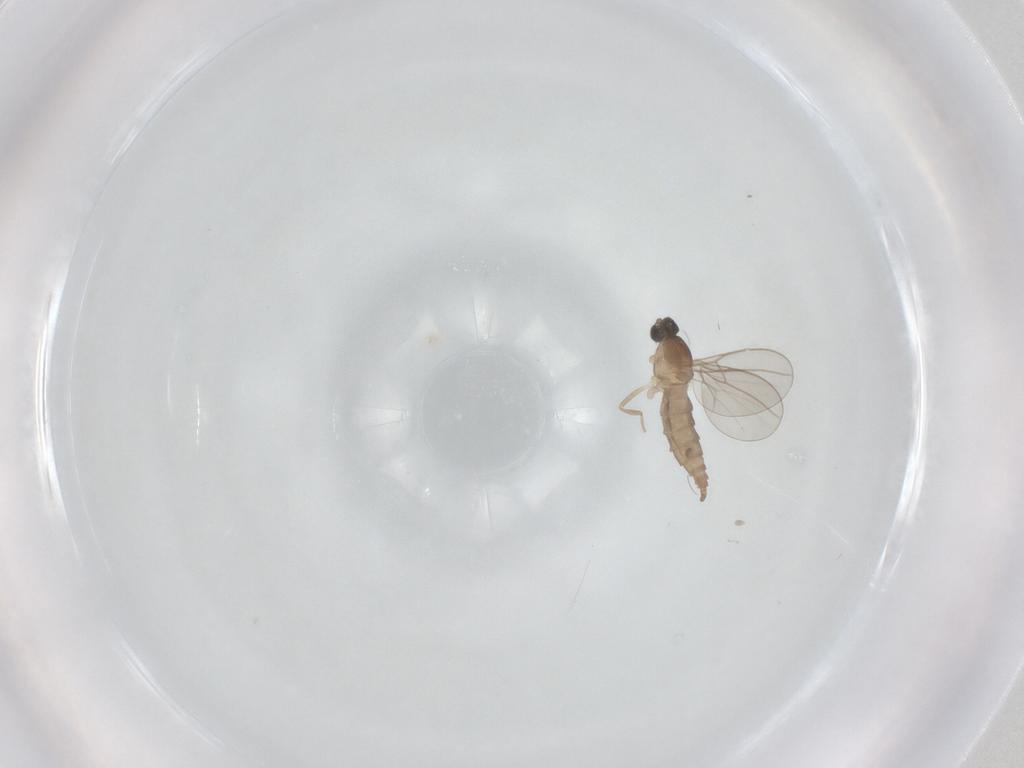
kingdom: Animalia
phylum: Arthropoda
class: Insecta
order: Diptera
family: Cecidomyiidae
